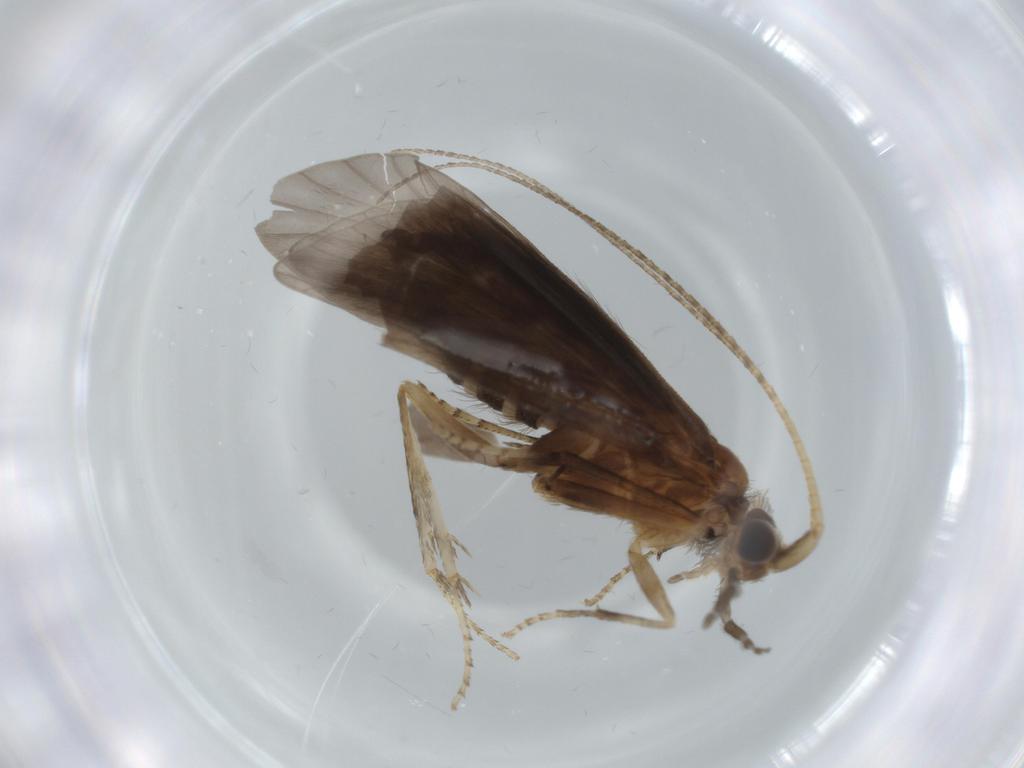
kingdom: Animalia
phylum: Arthropoda
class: Insecta
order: Trichoptera
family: Helicopsychidae
